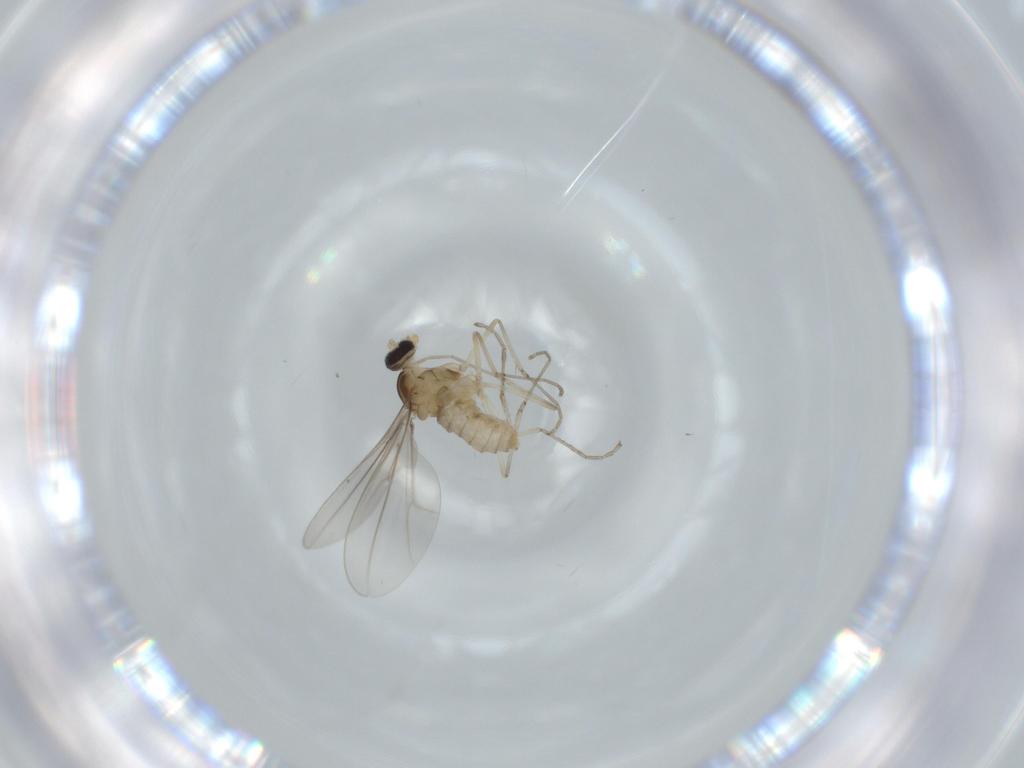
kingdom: Animalia
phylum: Arthropoda
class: Insecta
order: Diptera
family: Cecidomyiidae
